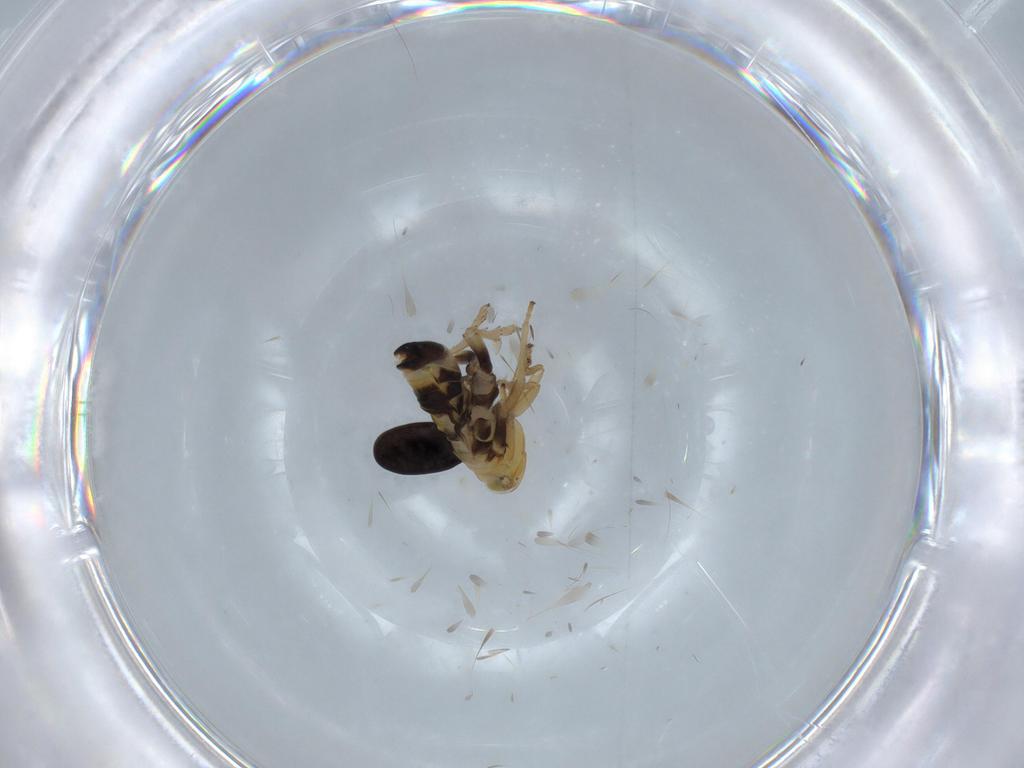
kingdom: Animalia
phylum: Arthropoda
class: Insecta
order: Hemiptera
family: Delphacidae
